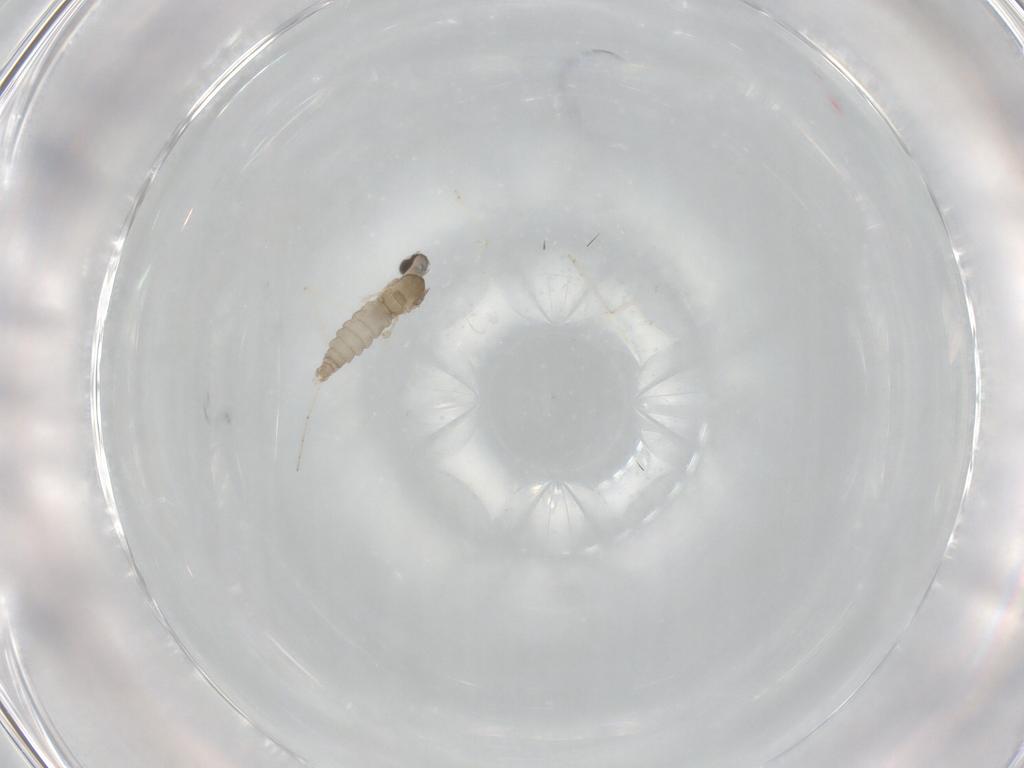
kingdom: Animalia
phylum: Arthropoda
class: Insecta
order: Diptera
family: Cecidomyiidae
